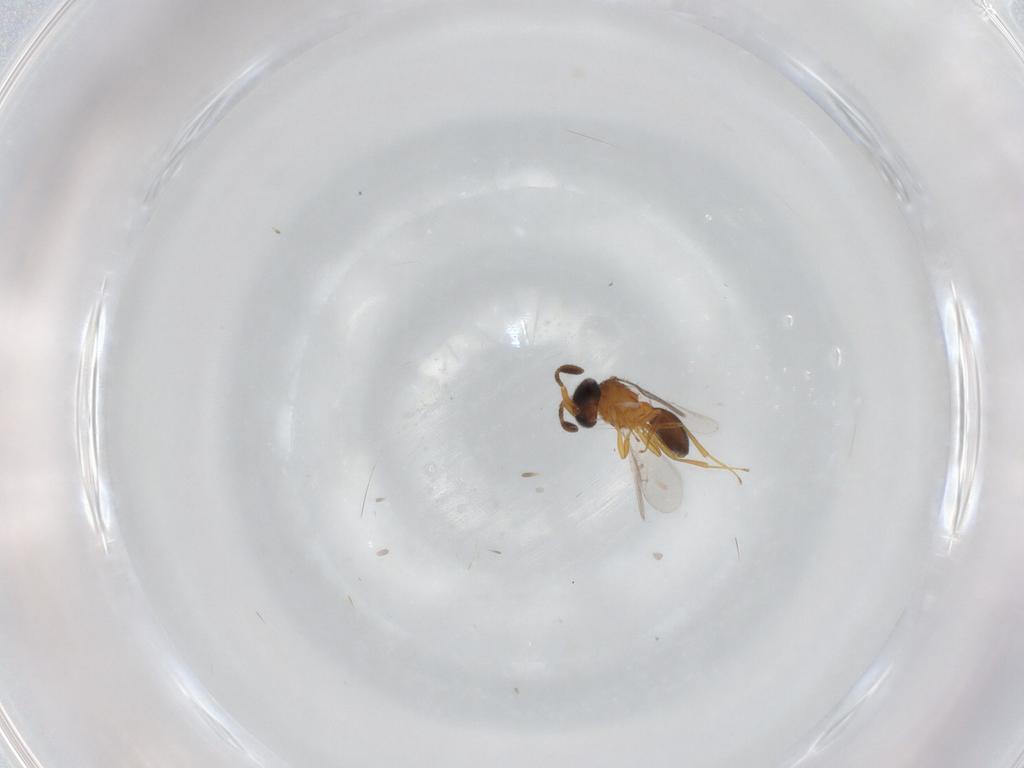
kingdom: Animalia
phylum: Arthropoda
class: Insecta
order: Hymenoptera
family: Scelionidae
